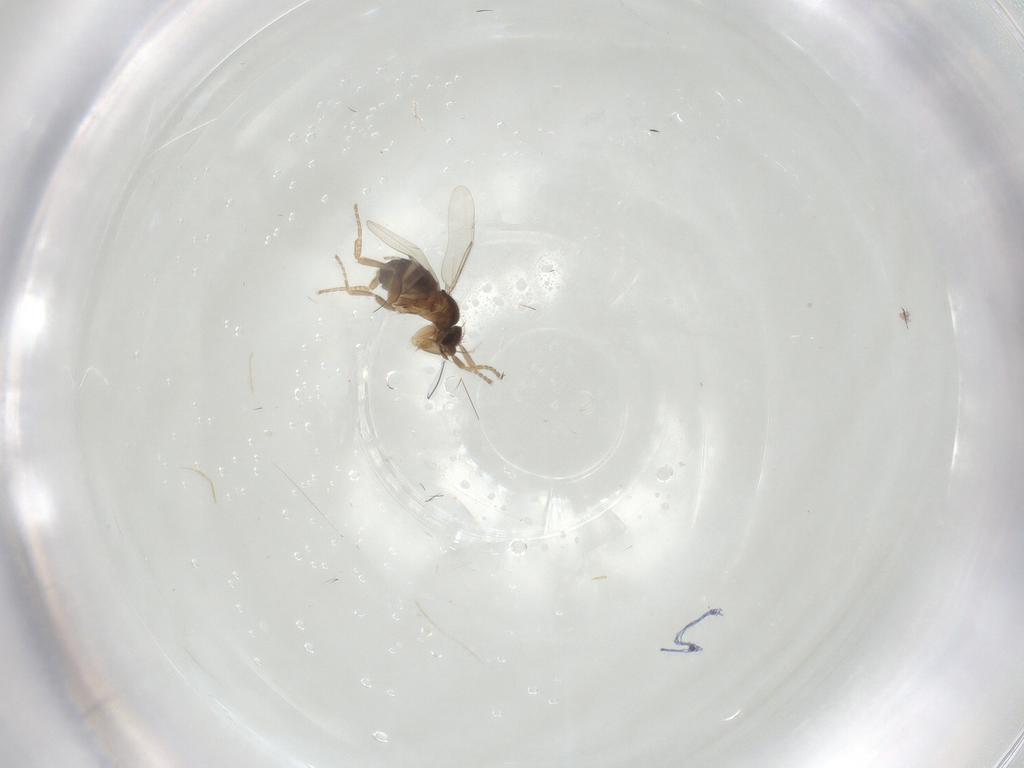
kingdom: Animalia
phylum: Arthropoda
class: Insecta
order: Diptera
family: Phoridae
